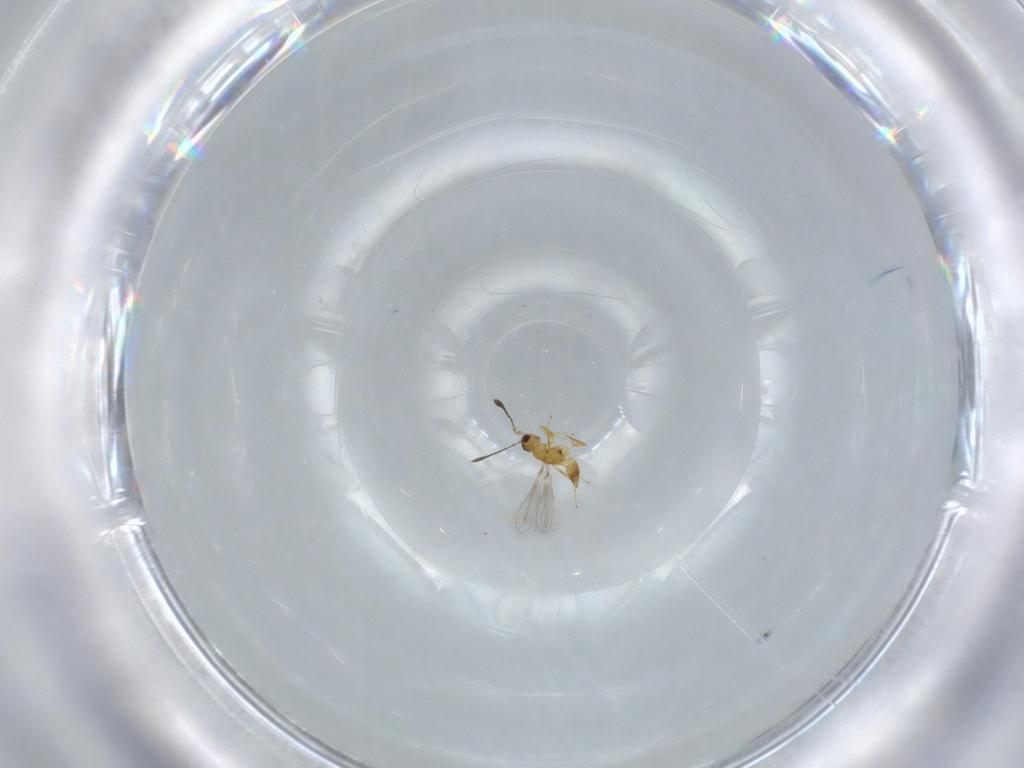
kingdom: Animalia
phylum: Arthropoda
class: Insecta
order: Hymenoptera
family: Mymaridae
